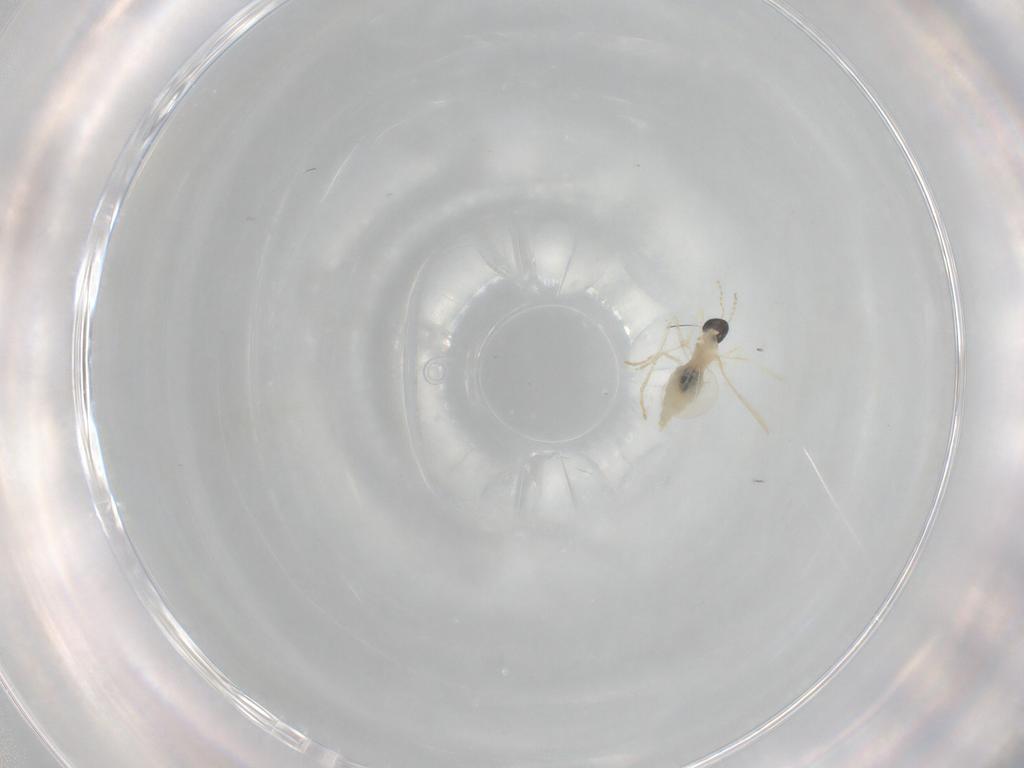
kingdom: Animalia
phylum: Arthropoda
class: Insecta
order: Diptera
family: Cecidomyiidae
